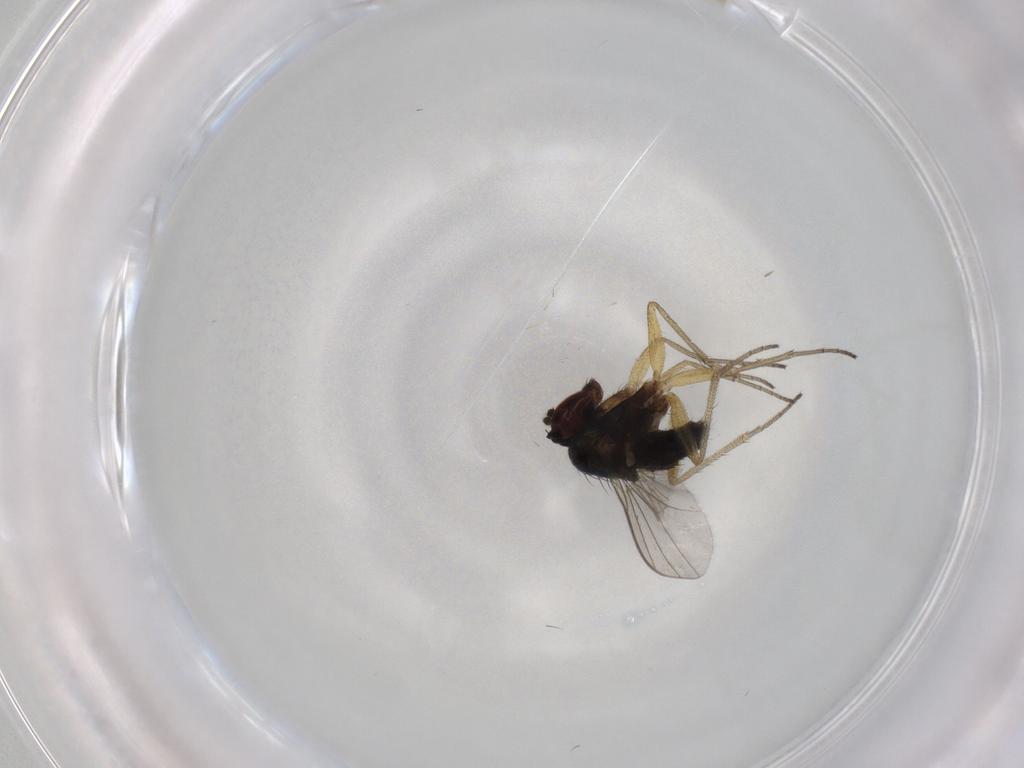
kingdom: Animalia
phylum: Arthropoda
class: Insecta
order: Diptera
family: Dolichopodidae
